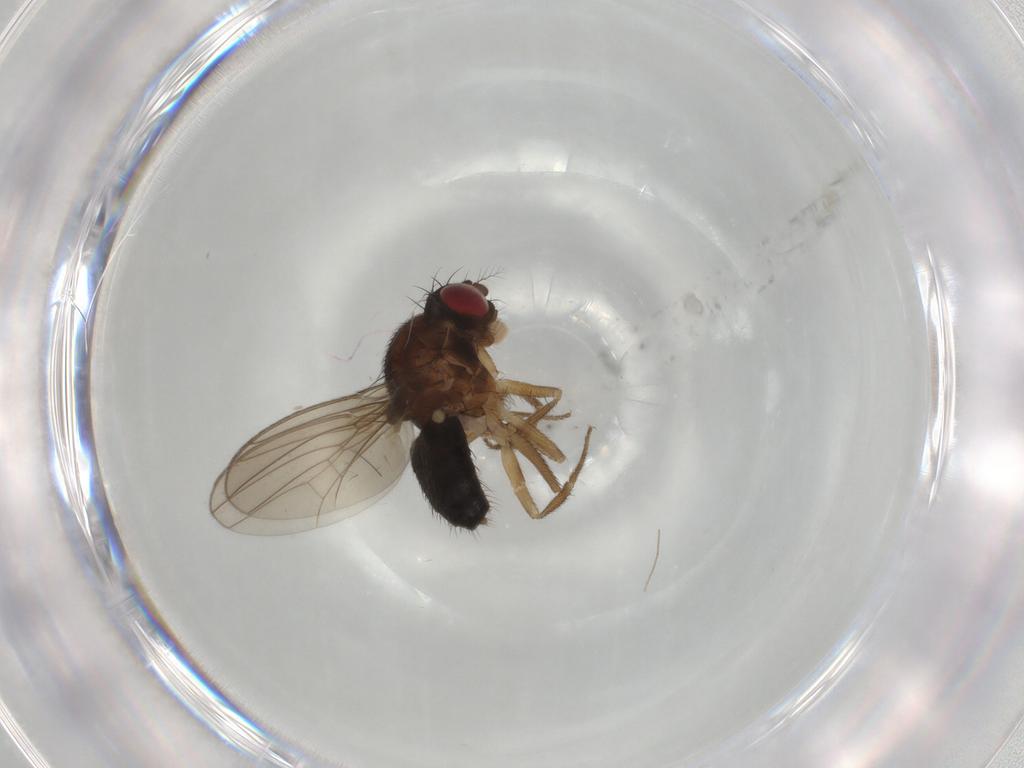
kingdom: Animalia
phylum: Arthropoda
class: Insecta
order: Diptera
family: Drosophilidae
